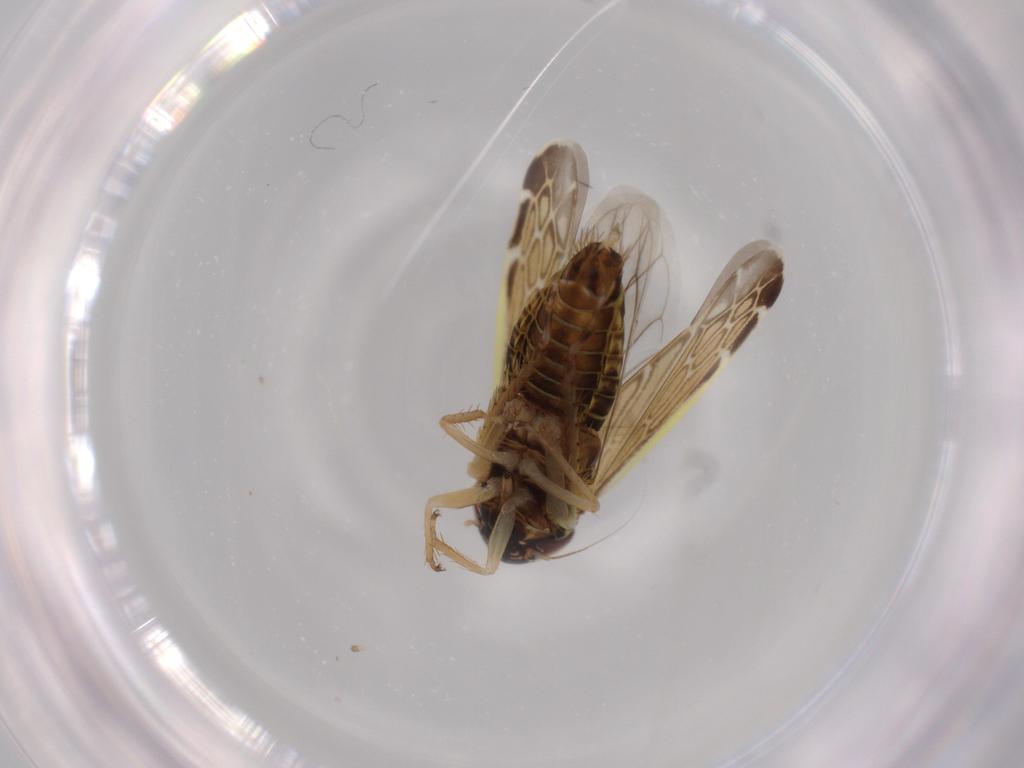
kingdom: Animalia
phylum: Arthropoda
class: Insecta
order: Hemiptera
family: Cicadellidae
